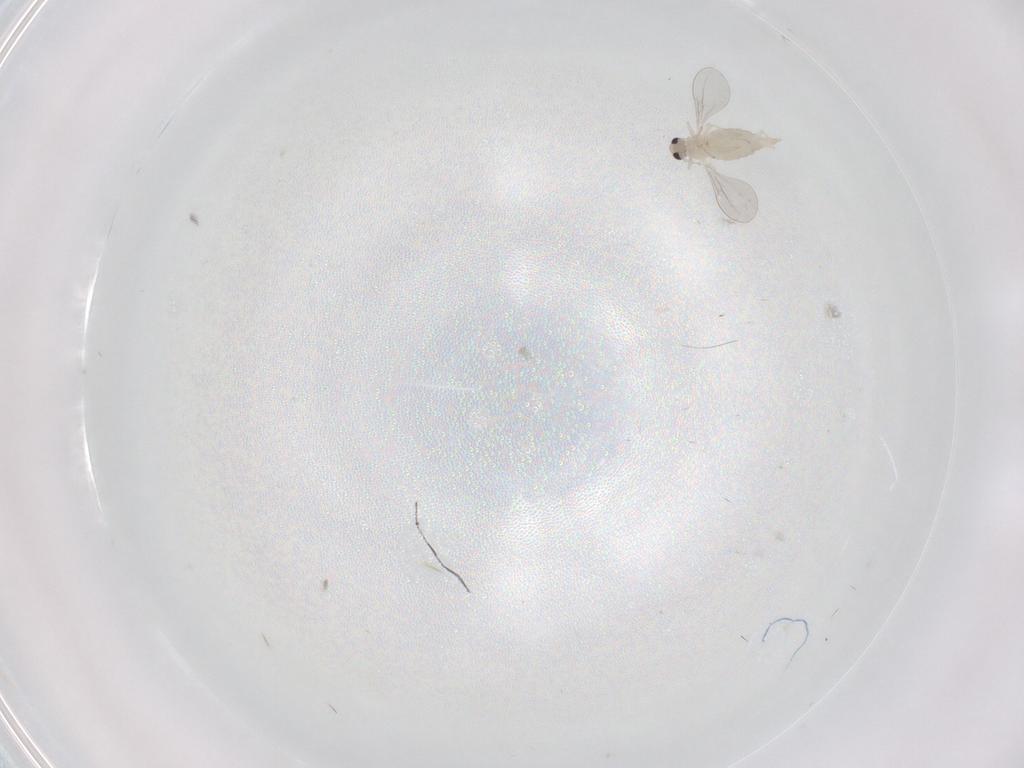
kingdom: Animalia
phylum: Arthropoda
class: Insecta
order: Diptera
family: Cecidomyiidae
